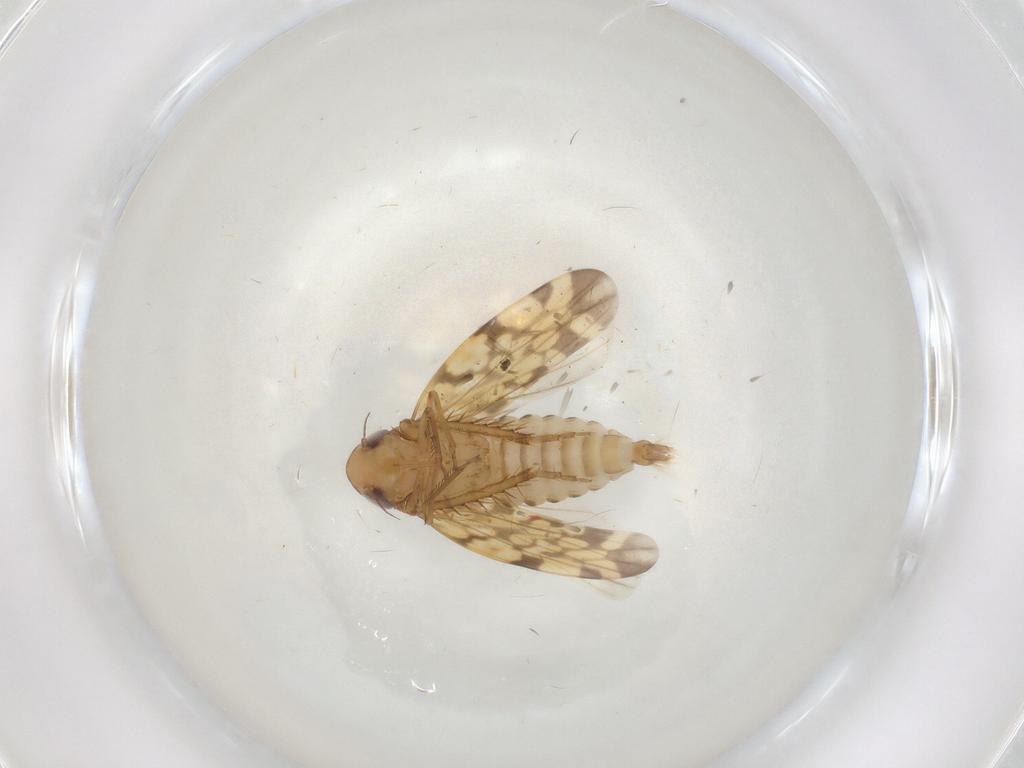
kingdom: Animalia
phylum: Arthropoda
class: Insecta
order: Hemiptera
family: Cicadellidae
